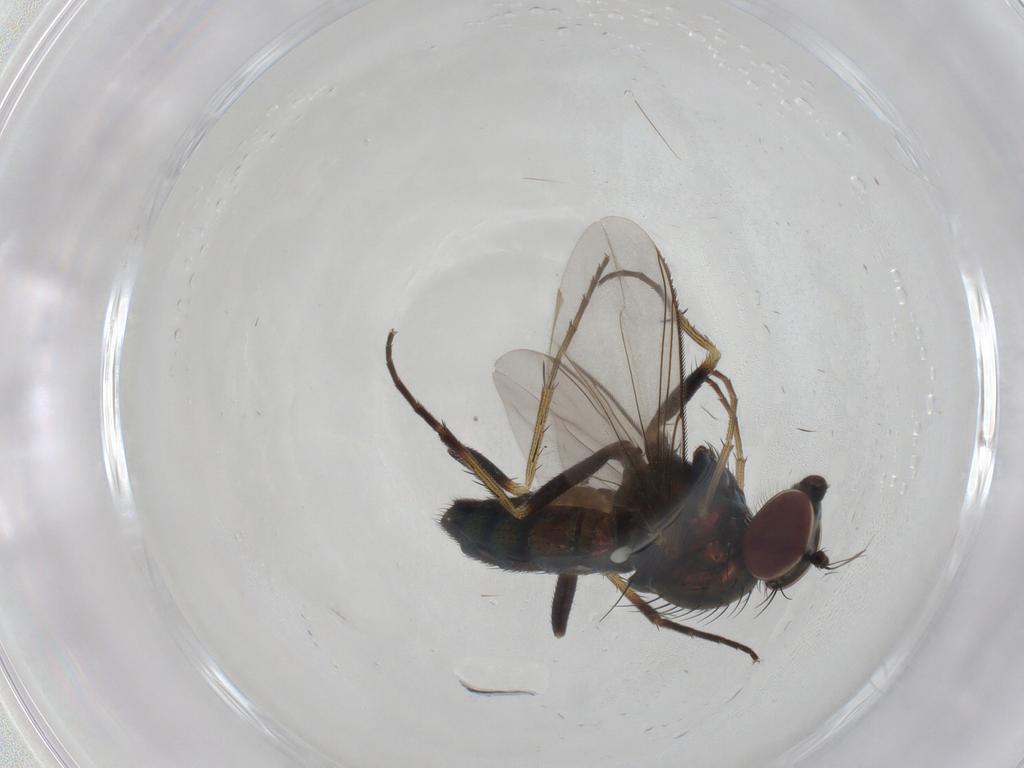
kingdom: Animalia
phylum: Arthropoda
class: Insecta
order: Diptera
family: Dolichopodidae
